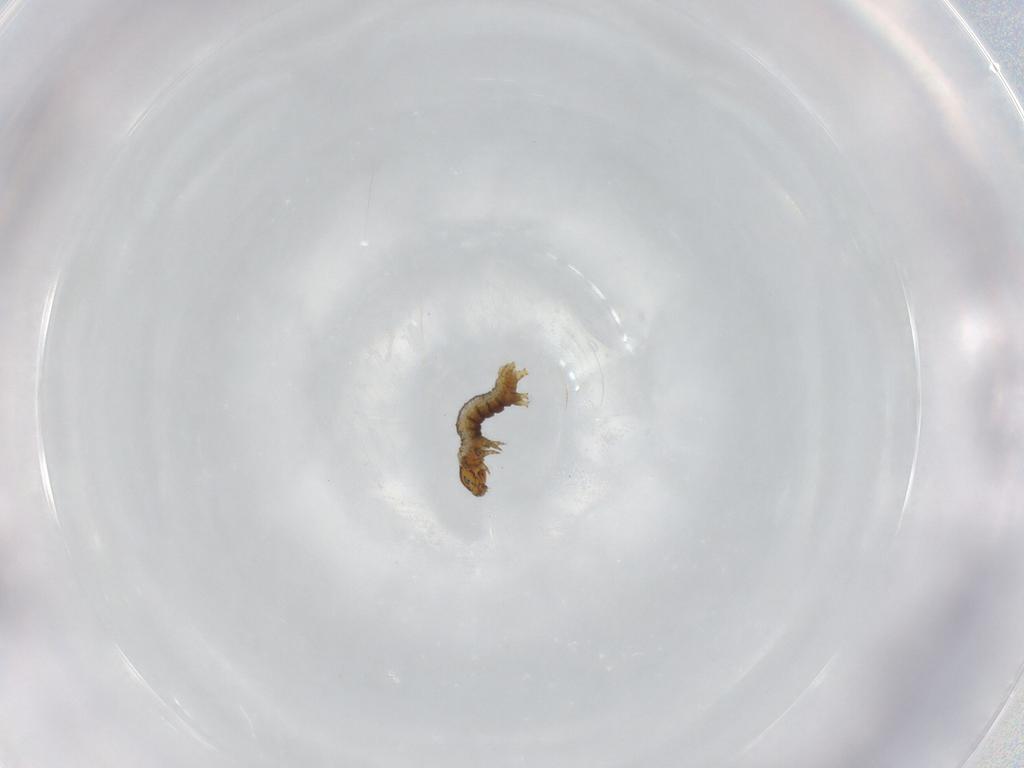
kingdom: Animalia
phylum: Arthropoda
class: Insecta
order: Lepidoptera
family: Geometridae
